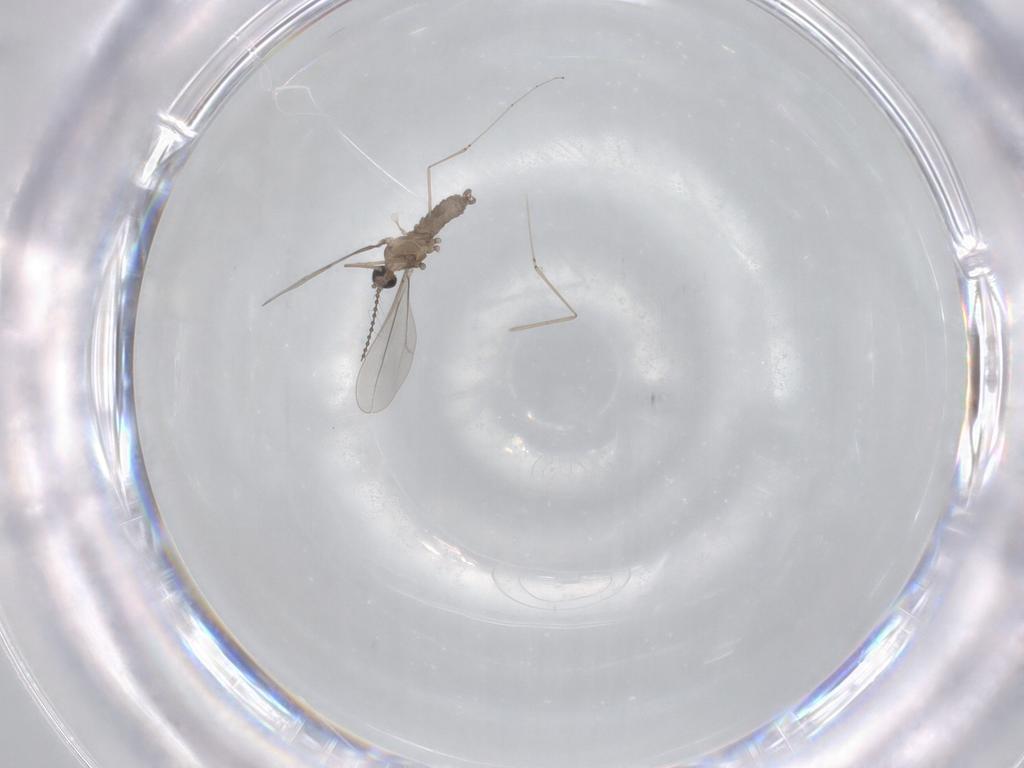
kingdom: Animalia
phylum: Arthropoda
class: Insecta
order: Diptera
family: Cecidomyiidae
